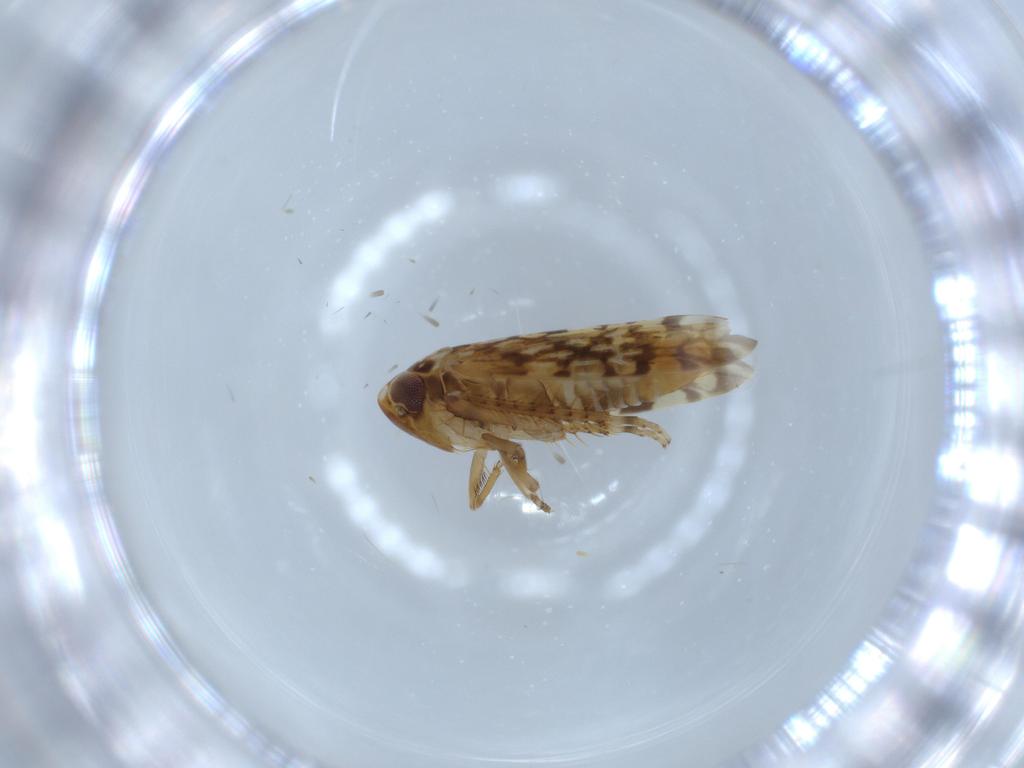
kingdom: Animalia
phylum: Arthropoda
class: Insecta
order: Hemiptera
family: Cicadellidae
